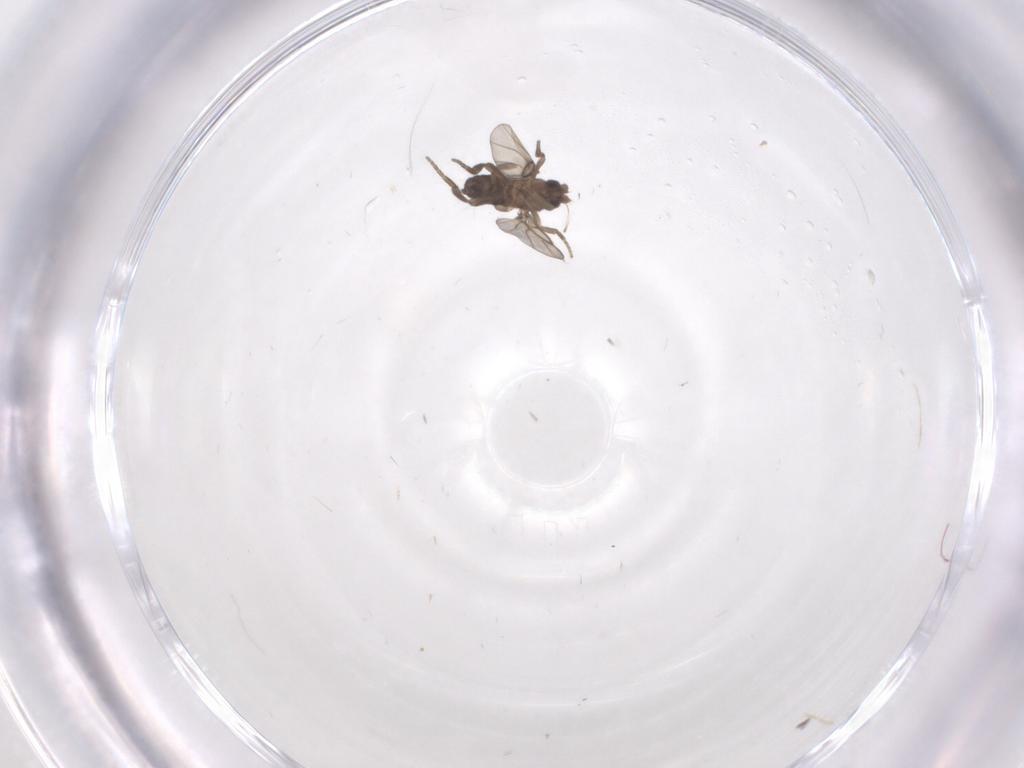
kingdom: Animalia
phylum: Arthropoda
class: Insecta
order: Diptera
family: Phoridae
